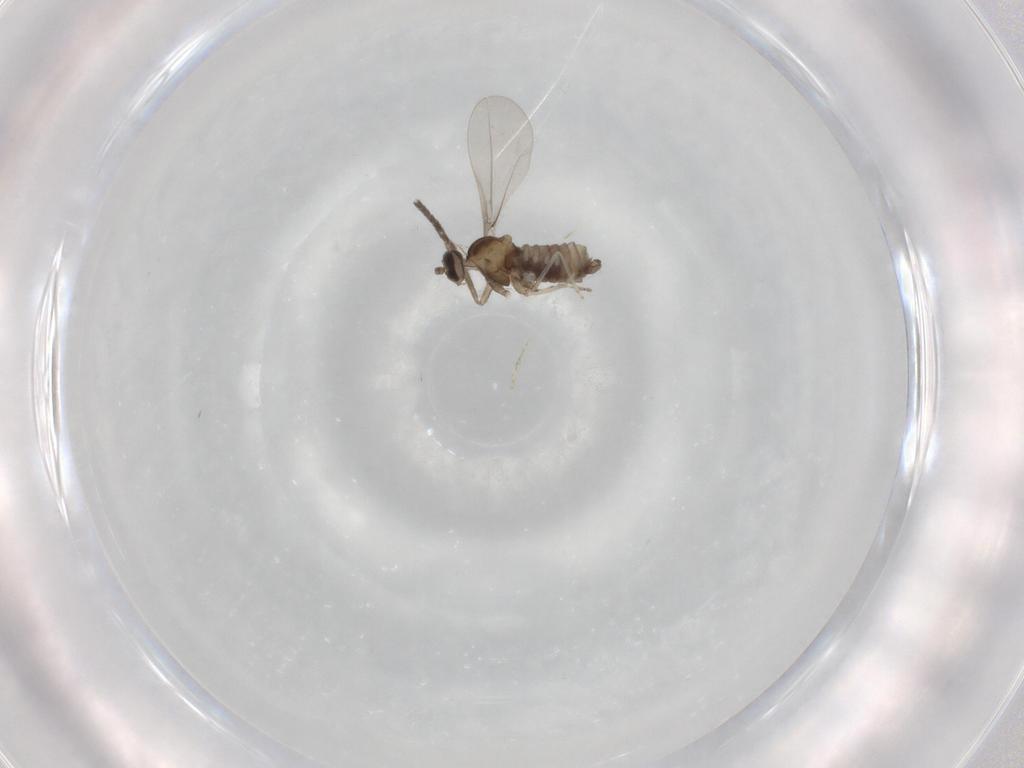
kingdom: Animalia
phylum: Arthropoda
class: Insecta
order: Diptera
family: Psychodidae
